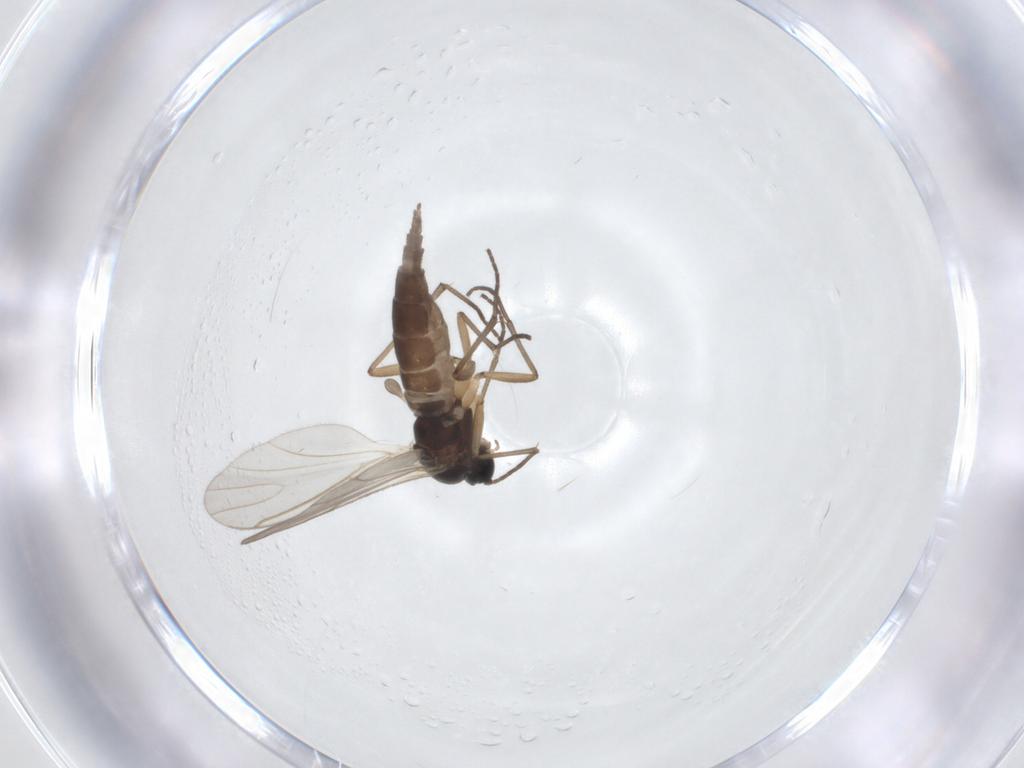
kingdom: Animalia
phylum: Arthropoda
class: Insecta
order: Diptera
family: Sciaridae
